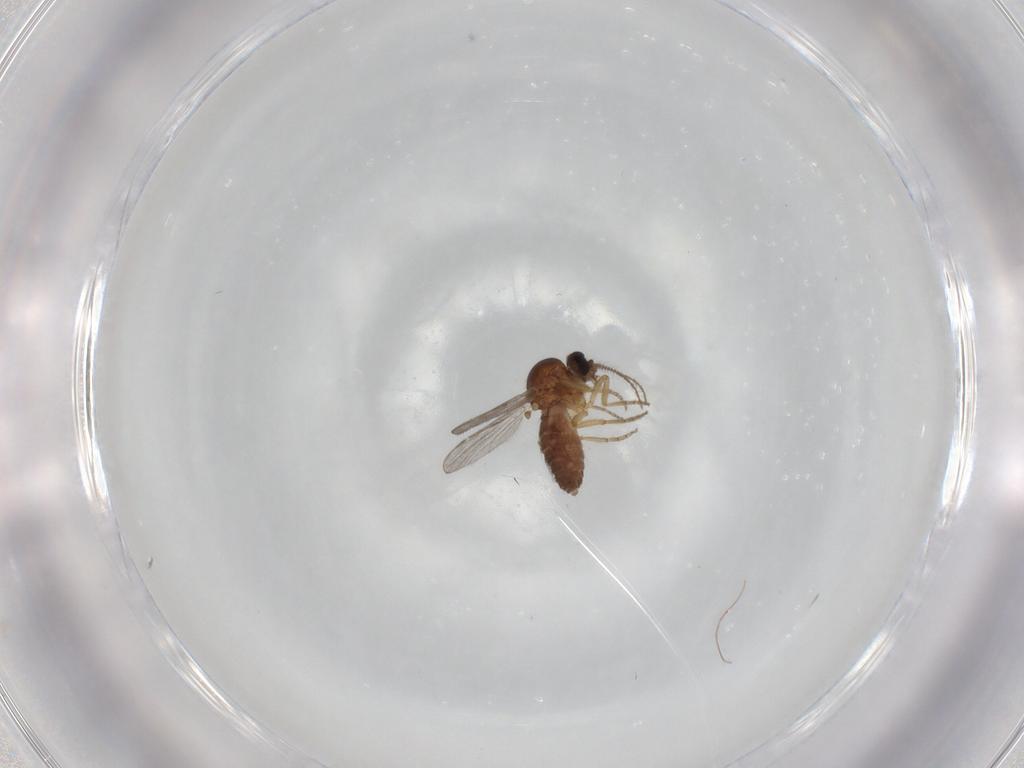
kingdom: Animalia
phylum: Arthropoda
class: Insecta
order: Diptera
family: Ceratopogonidae
